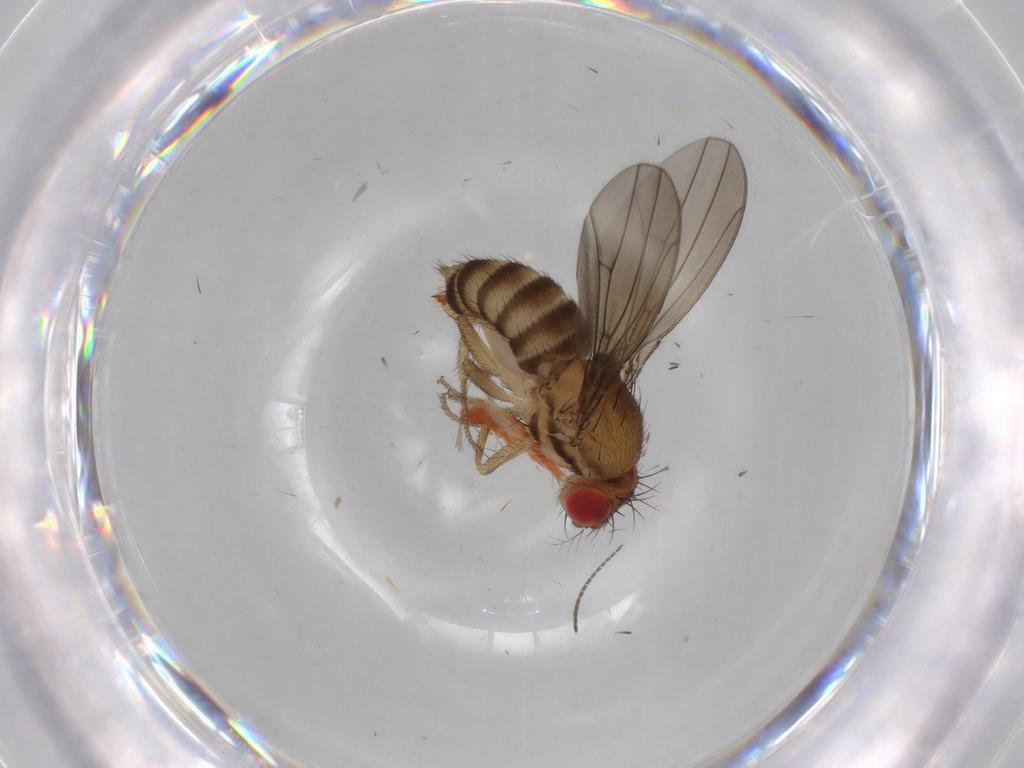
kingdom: Animalia
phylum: Arthropoda
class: Insecta
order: Diptera
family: Drosophilidae
